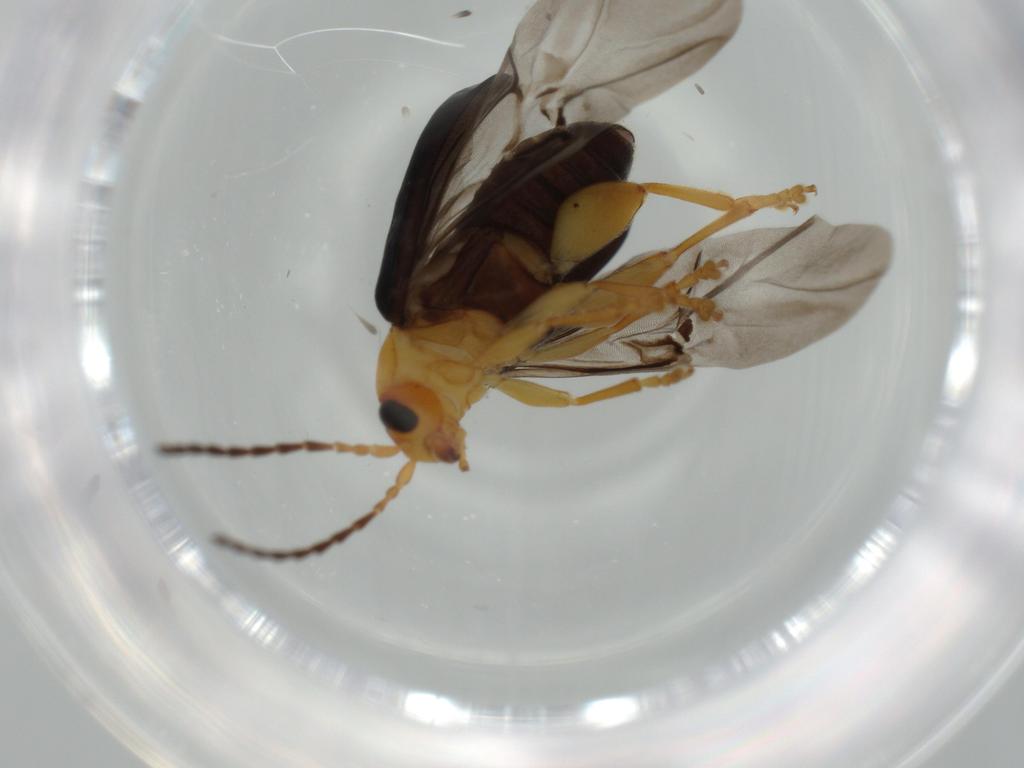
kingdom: Animalia
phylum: Arthropoda
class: Insecta
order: Coleoptera
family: Chrysomelidae
